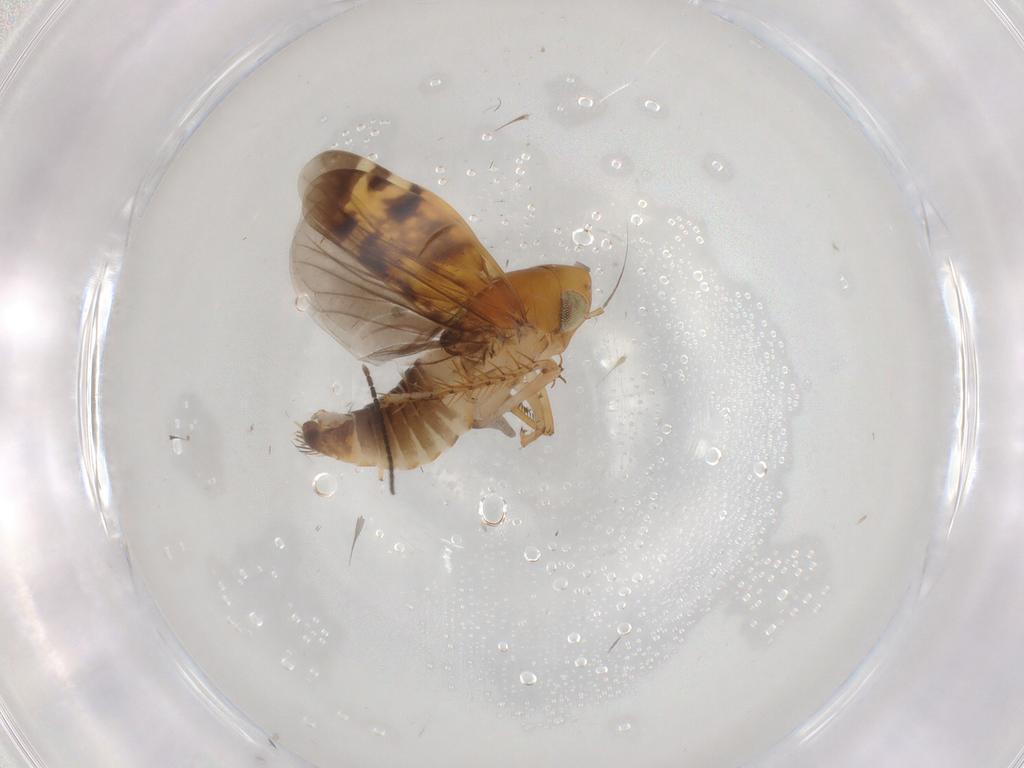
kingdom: Animalia
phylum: Arthropoda
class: Insecta
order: Hemiptera
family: Cicadellidae
